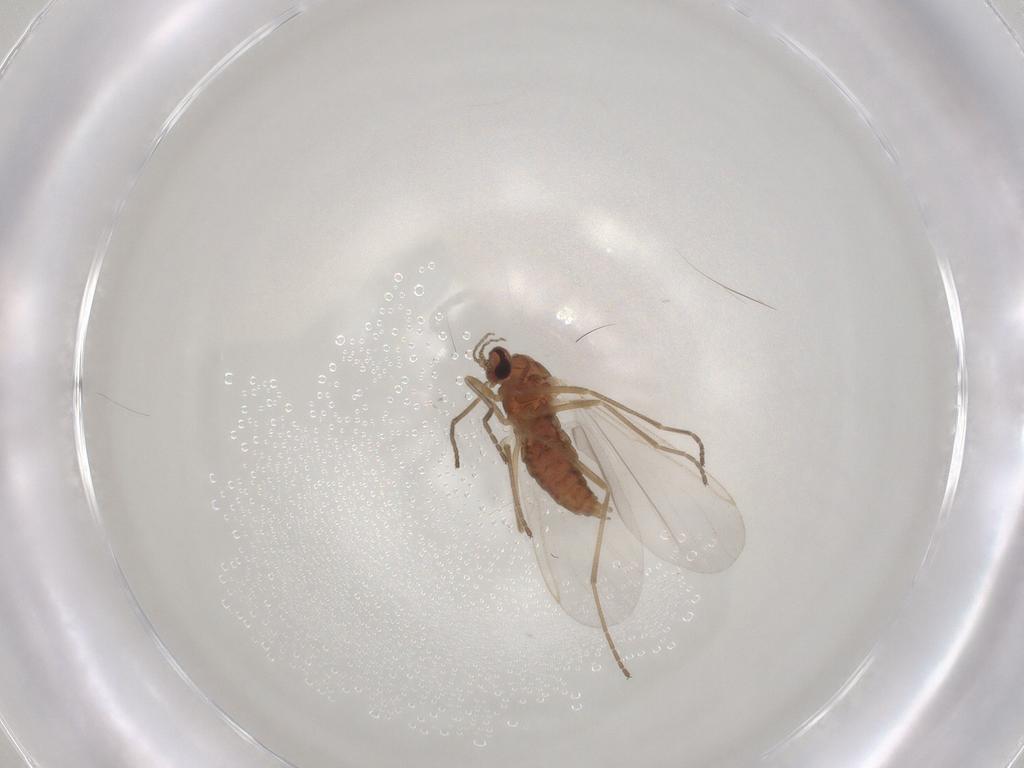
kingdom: Animalia
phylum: Arthropoda
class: Insecta
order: Diptera
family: Cecidomyiidae
